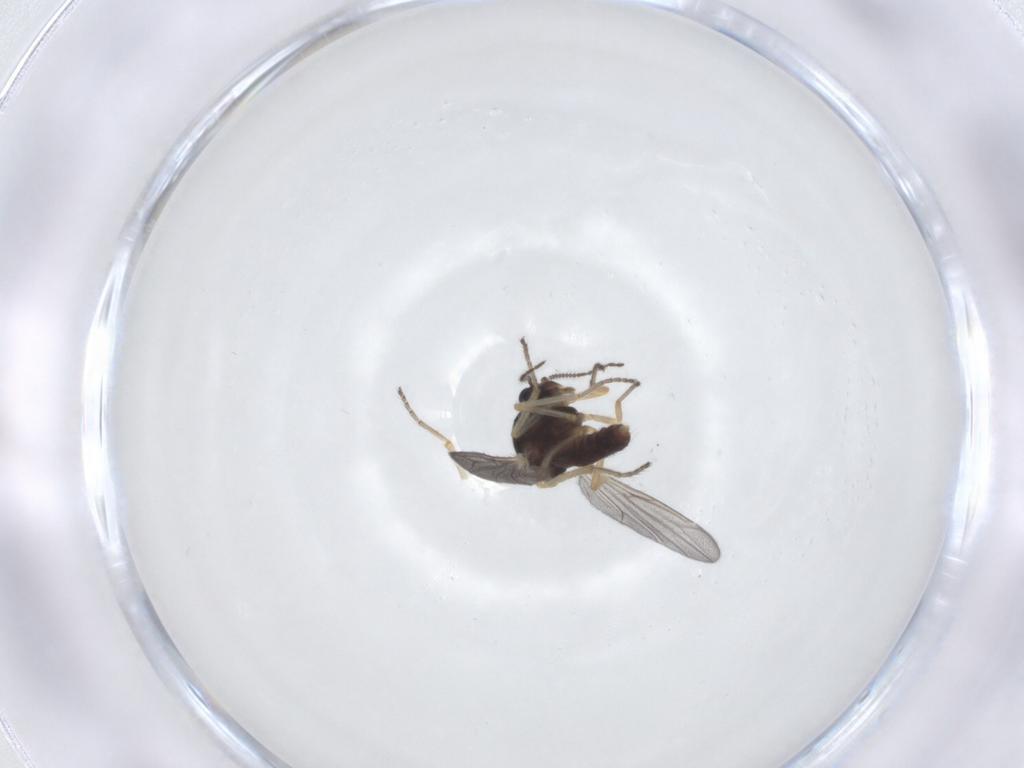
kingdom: Animalia
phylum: Arthropoda
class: Insecta
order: Diptera
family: Ceratopogonidae
